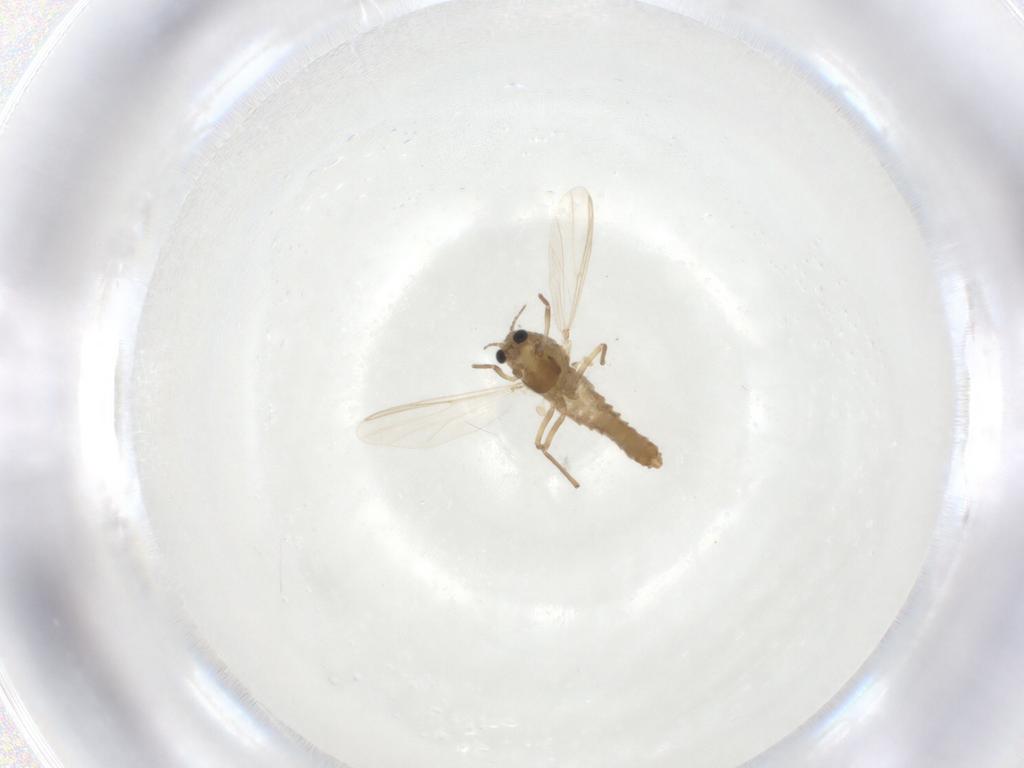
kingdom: Animalia
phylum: Arthropoda
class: Insecta
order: Diptera
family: Chironomidae
